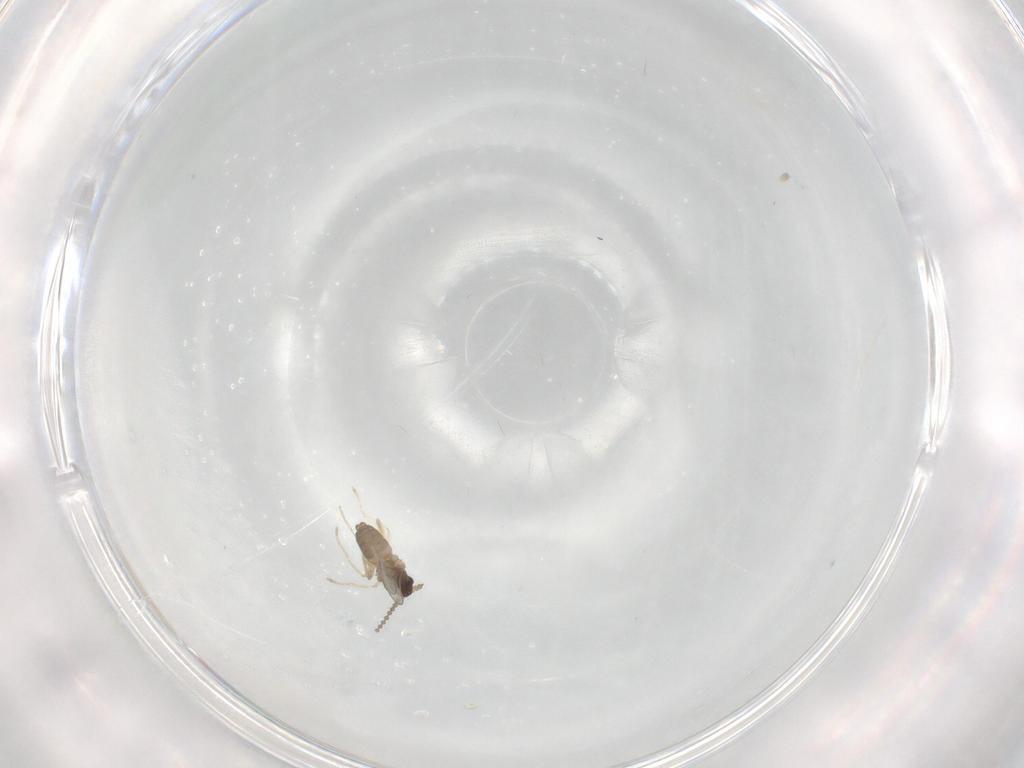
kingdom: Animalia
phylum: Arthropoda
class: Insecta
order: Diptera
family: Cecidomyiidae
